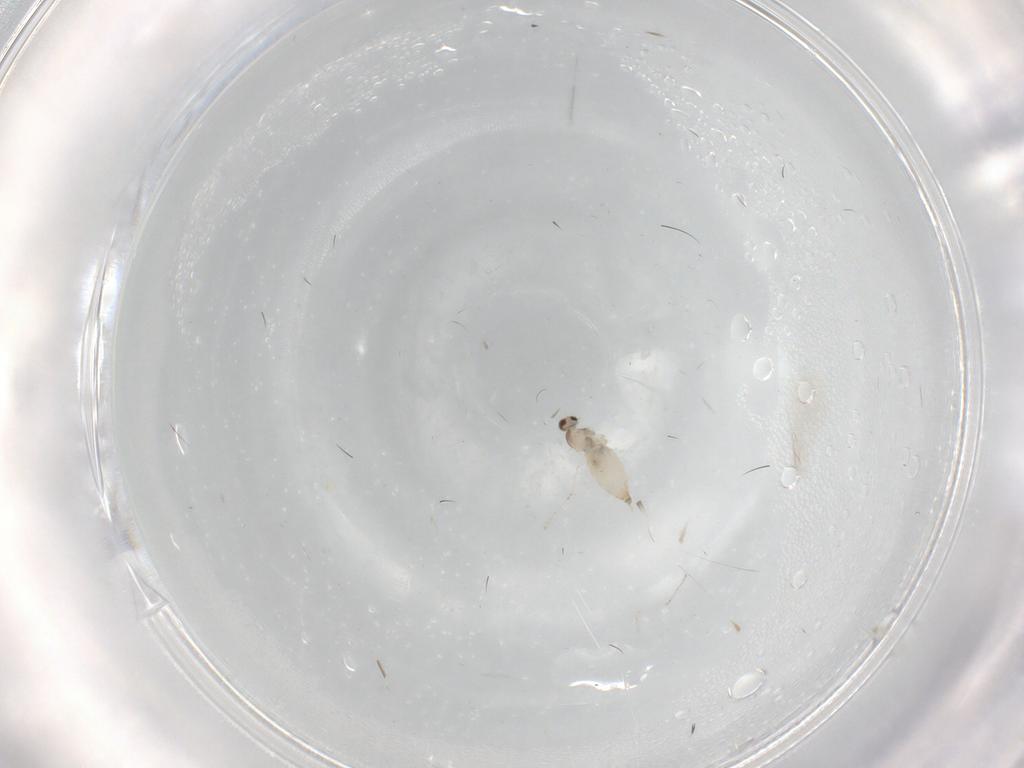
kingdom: Animalia
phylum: Arthropoda
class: Insecta
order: Diptera
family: Cecidomyiidae
